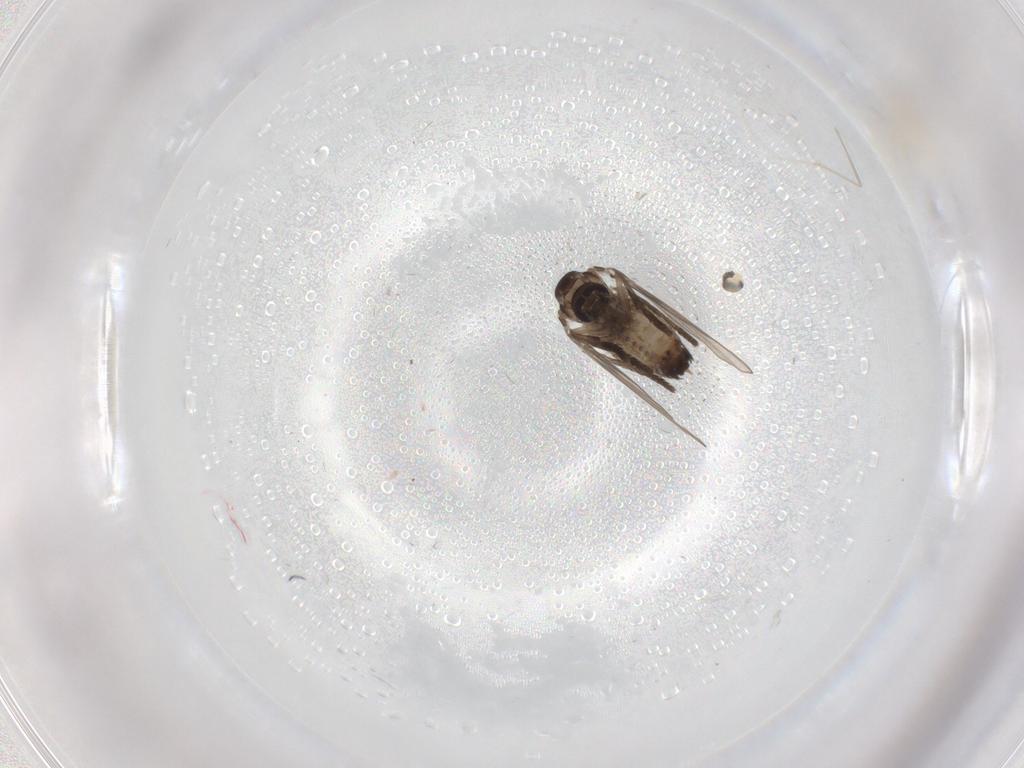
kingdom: Animalia
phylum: Arthropoda
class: Insecta
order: Diptera
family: Cecidomyiidae
